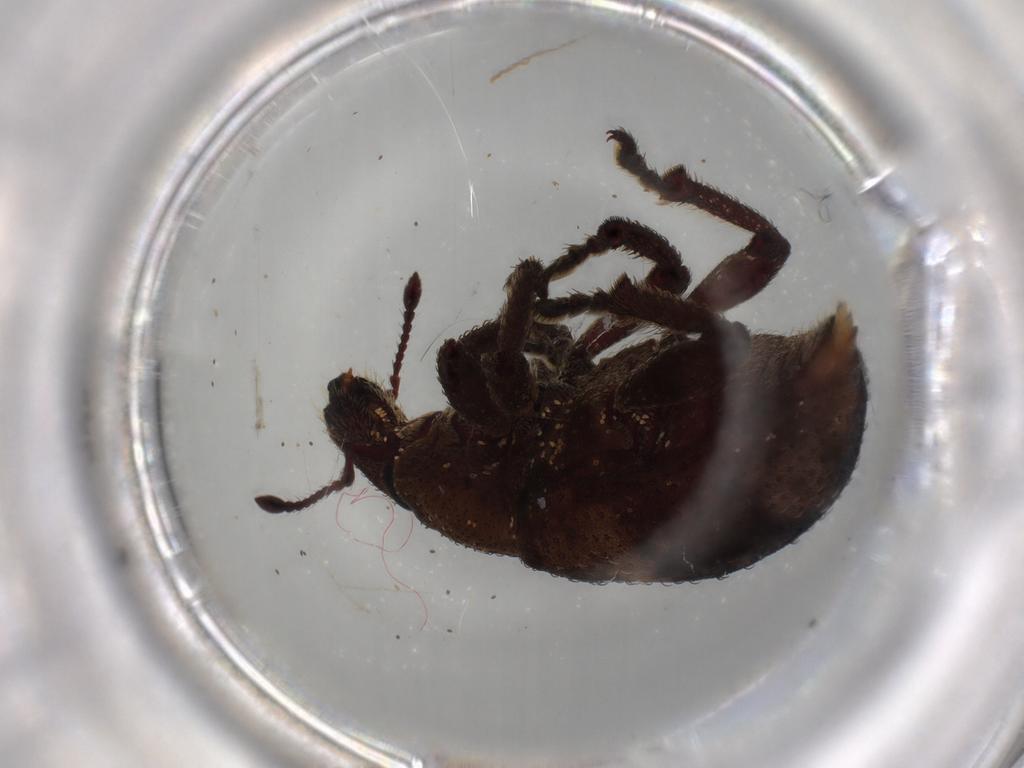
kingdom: Animalia
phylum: Arthropoda
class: Insecta
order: Coleoptera
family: Curculionidae
